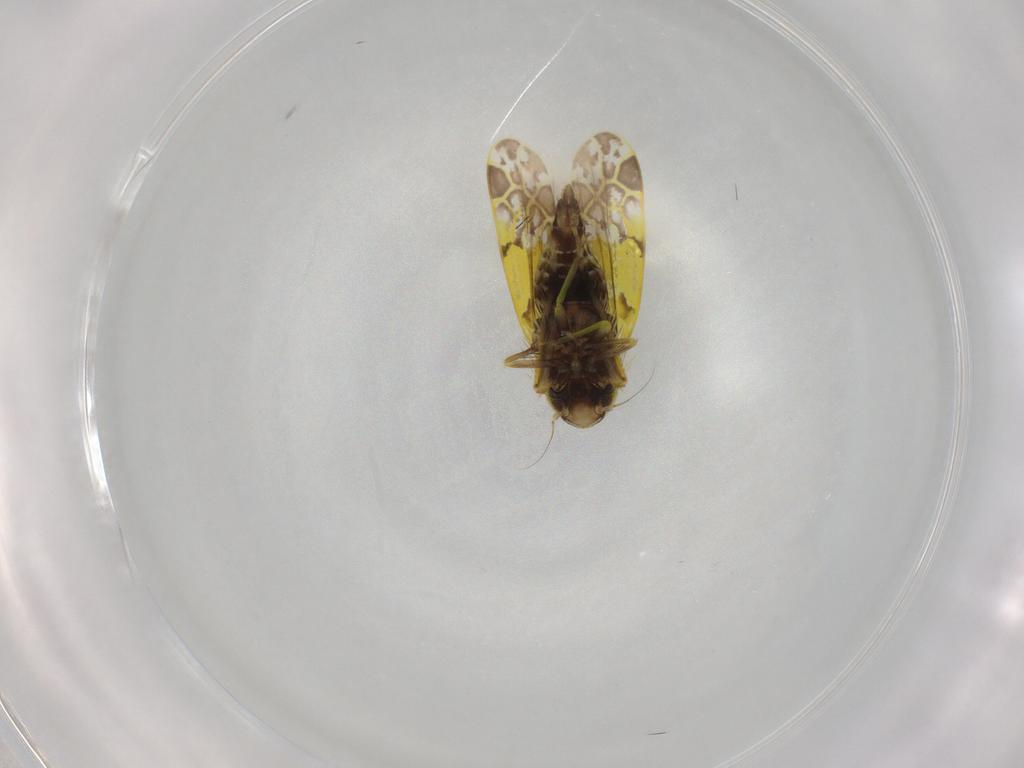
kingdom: Animalia
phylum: Arthropoda
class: Insecta
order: Hemiptera
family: Cicadellidae
